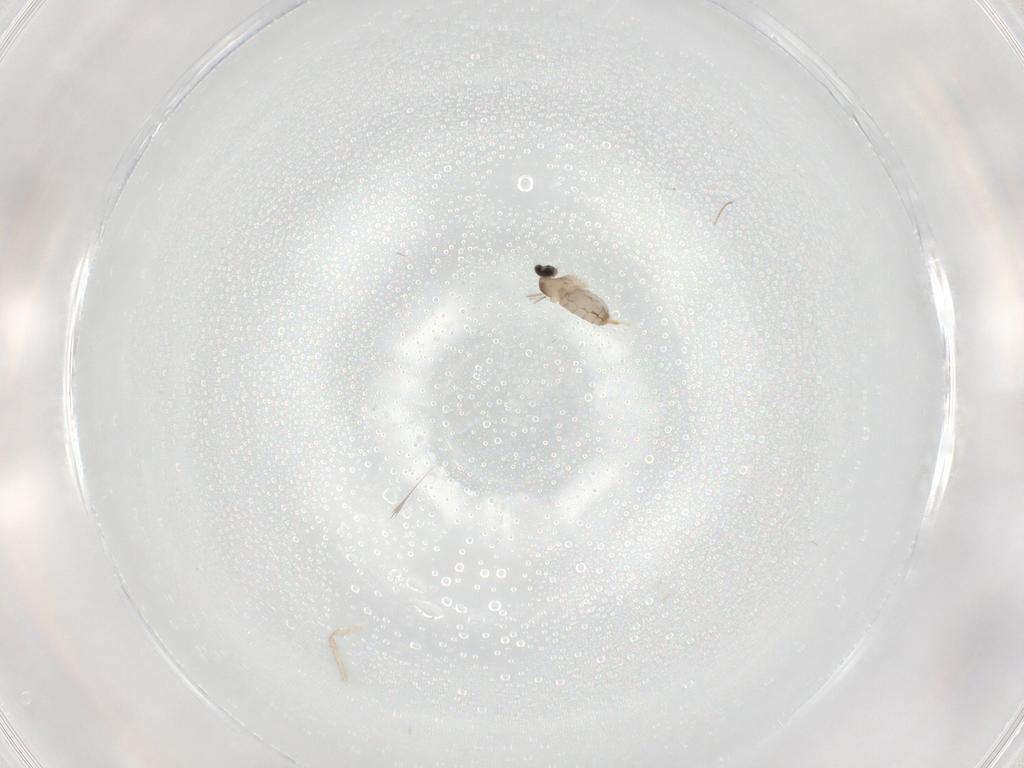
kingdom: Animalia
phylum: Arthropoda
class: Insecta
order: Diptera
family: Cecidomyiidae
